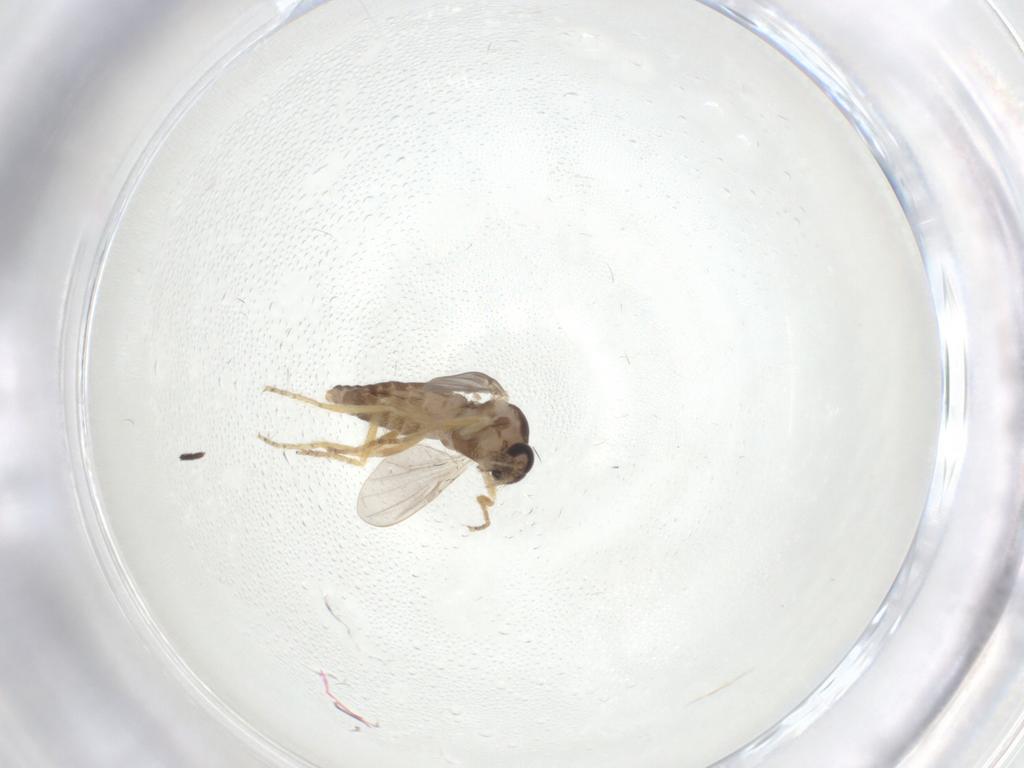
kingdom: Animalia
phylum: Arthropoda
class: Insecta
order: Diptera
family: Ceratopogonidae
